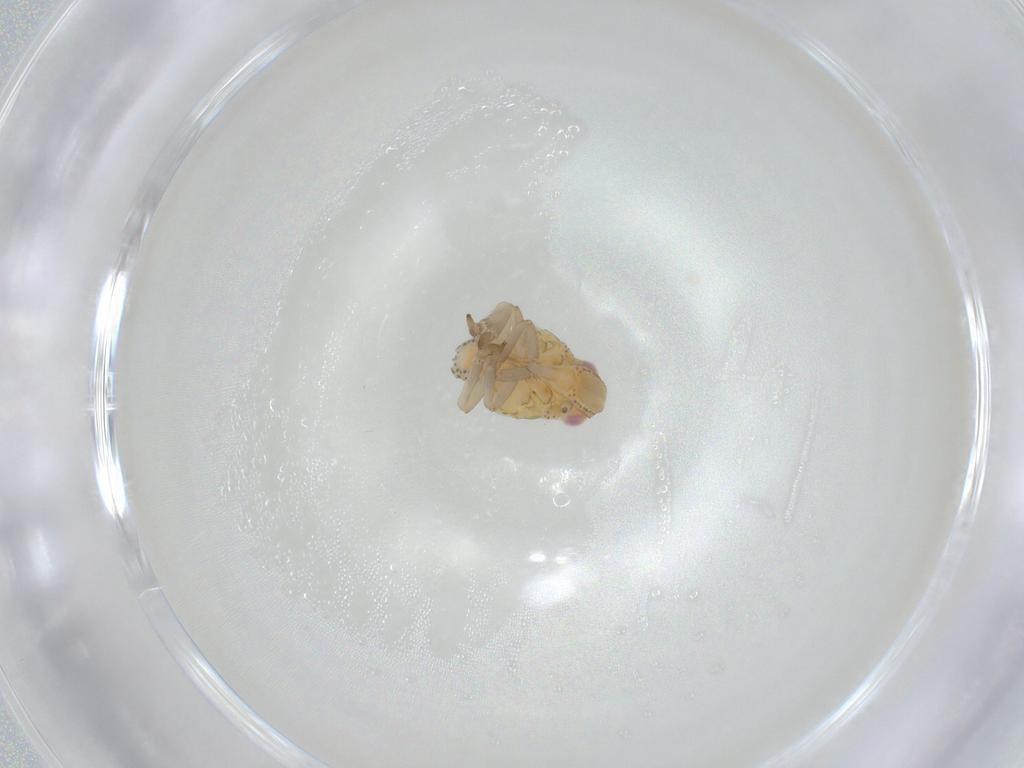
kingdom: Animalia
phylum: Arthropoda
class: Insecta
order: Hemiptera
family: Tropiduchidae
